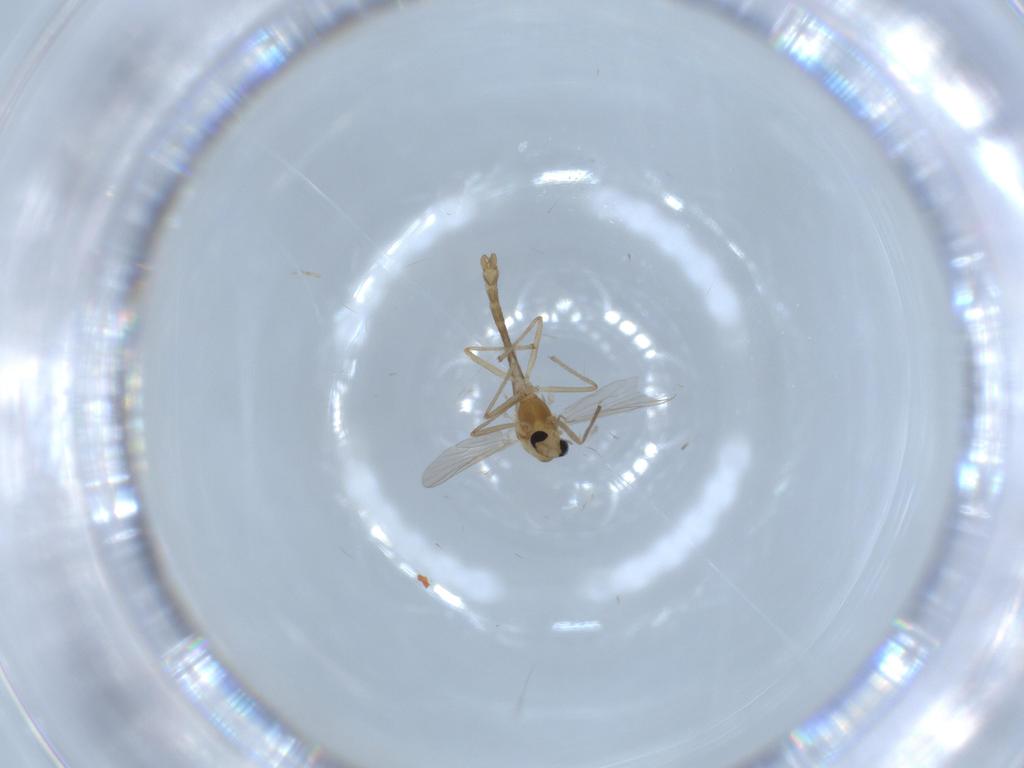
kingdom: Animalia
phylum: Arthropoda
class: Insecta
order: Diptera
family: Chironomidae
